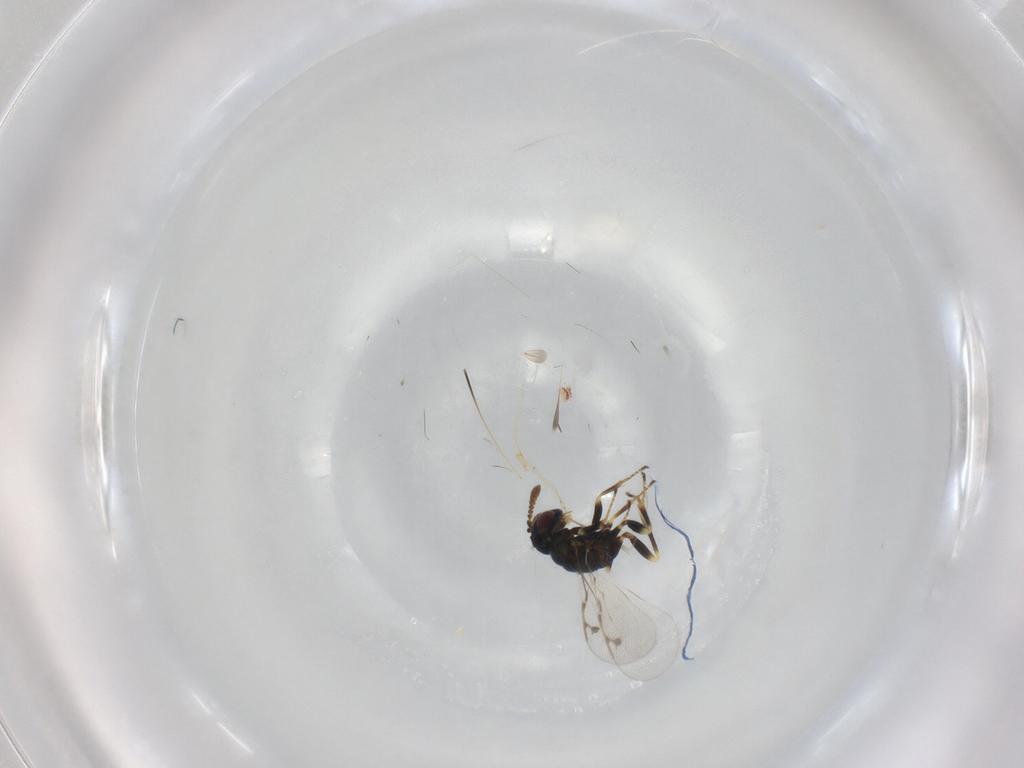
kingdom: Animalia
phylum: Arthropoda
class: Insecta
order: Hymenoptera
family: Pteromalidae
